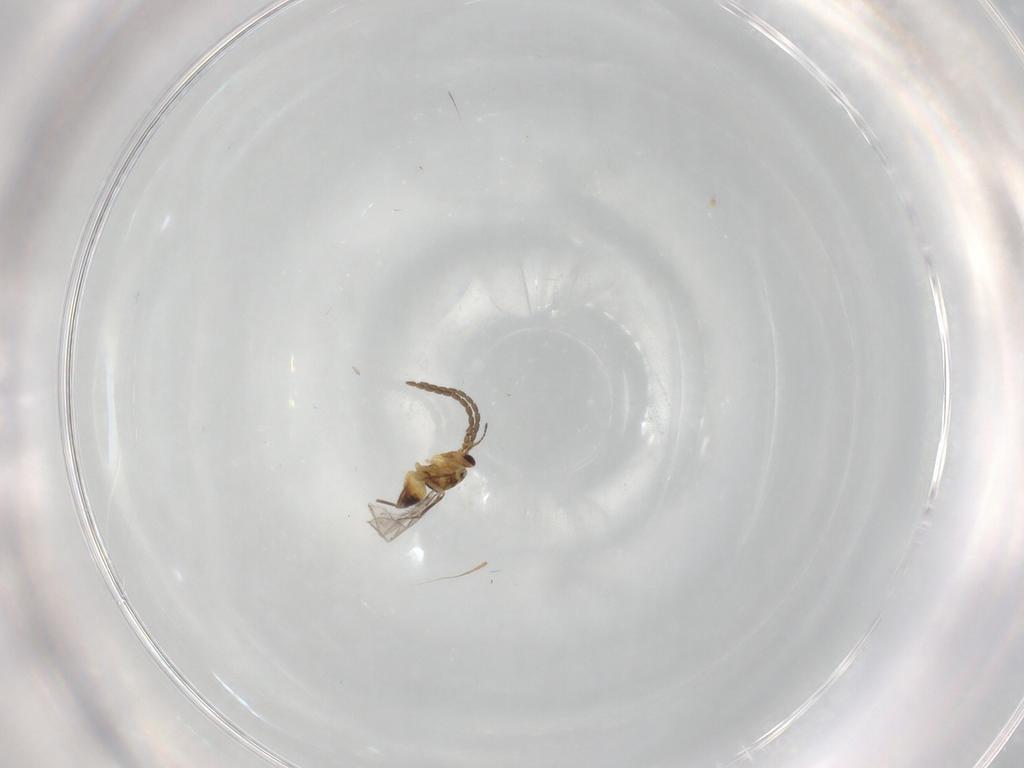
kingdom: Animalia
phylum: Arthropoda
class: Insecta
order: Hymenoptera
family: Mymaridae
